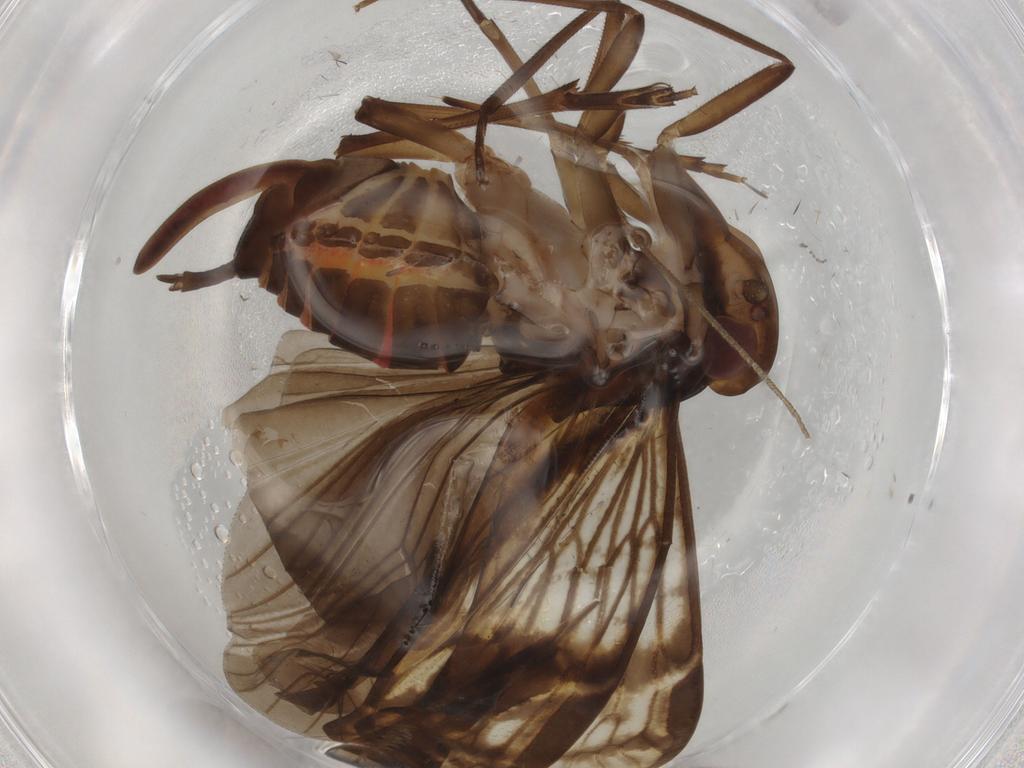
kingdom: Animalia
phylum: Arthropoda
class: Insecta
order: Hemiptera
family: Cixiidae
